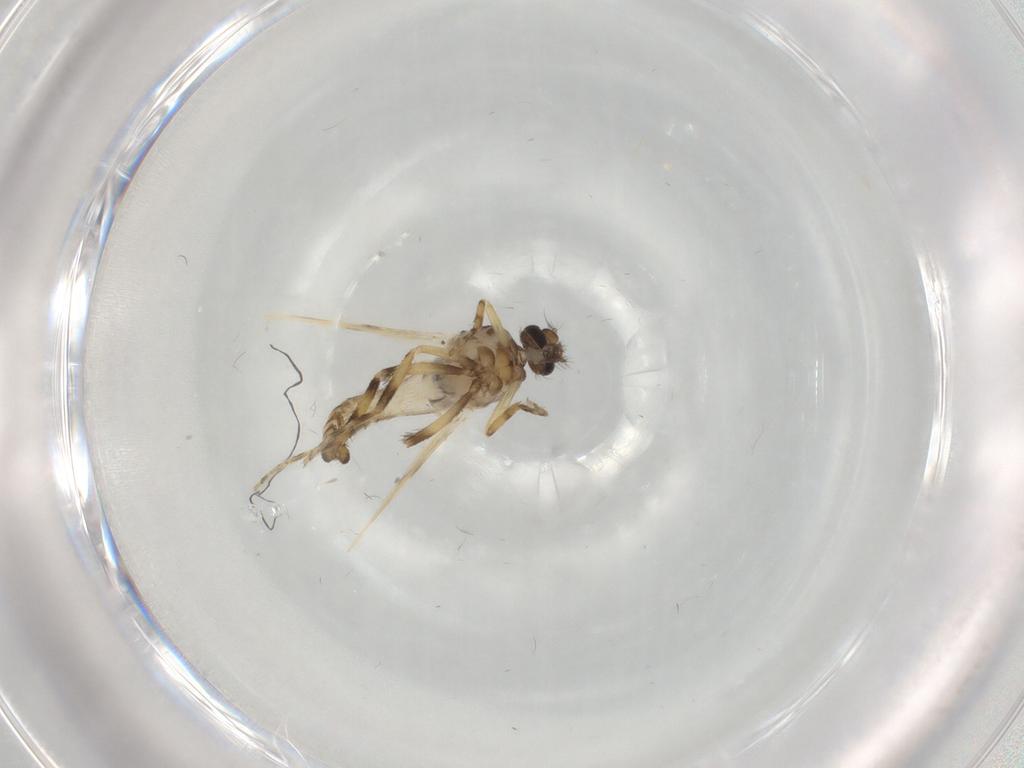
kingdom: Animalia
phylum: Arthropoda
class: Insecta
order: Diptera
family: Ceratopogonidae
